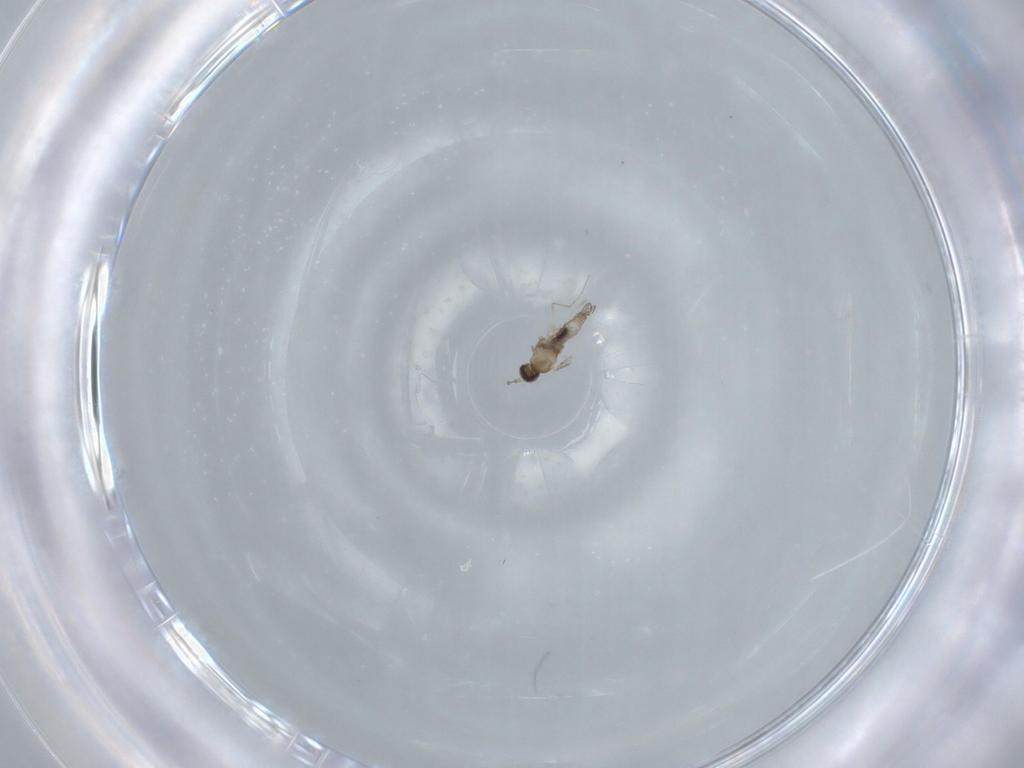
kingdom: Animalia
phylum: Arthropoda
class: Insecta
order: Diptera
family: Cecidomyiidae
